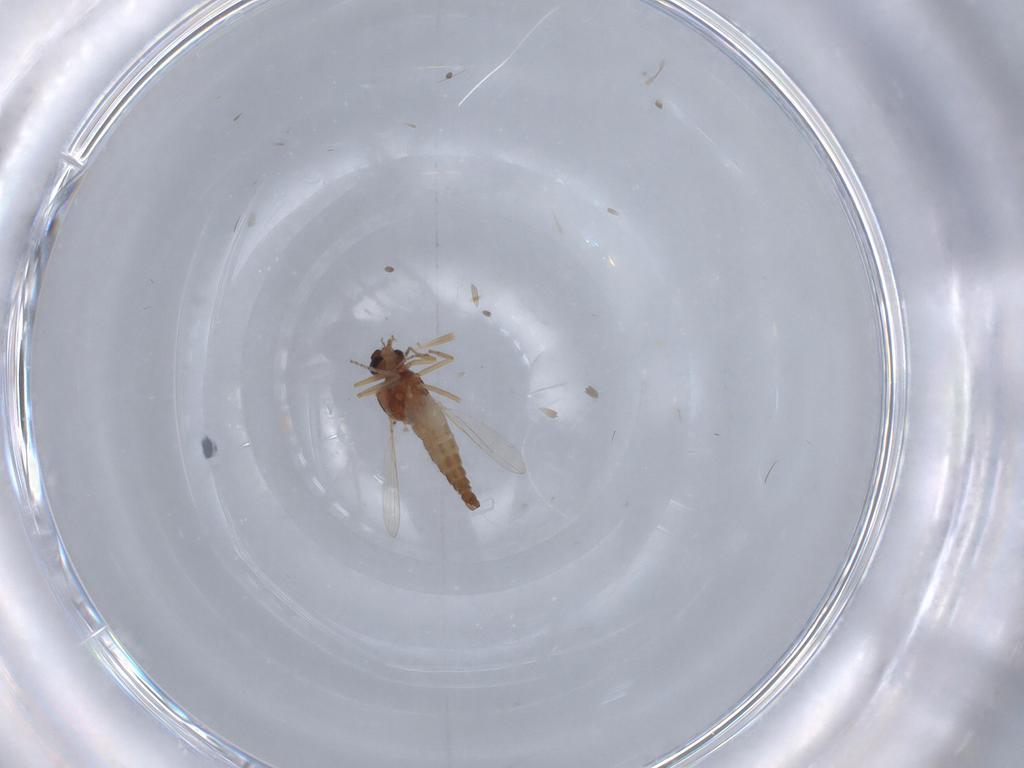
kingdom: Animalia
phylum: Arthropoda
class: Insecta
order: Diptera
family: Ceratopogonidae
